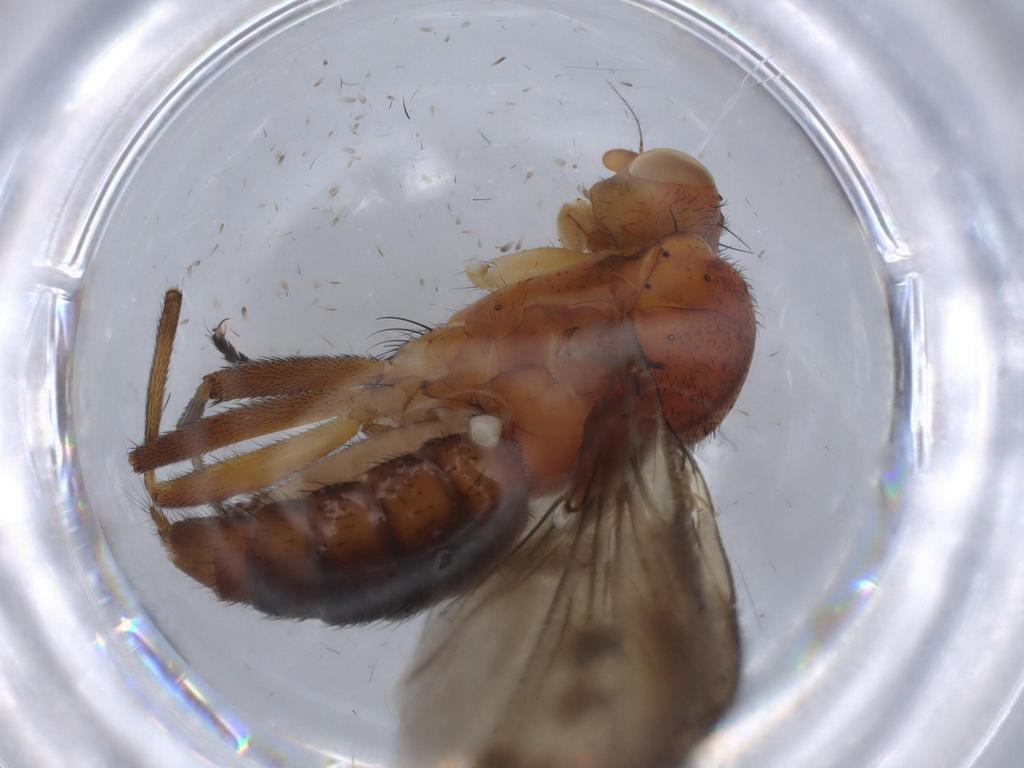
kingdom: Animalia
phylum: Arthropoda
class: Insecta
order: Diptera
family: Heleomyzidae
